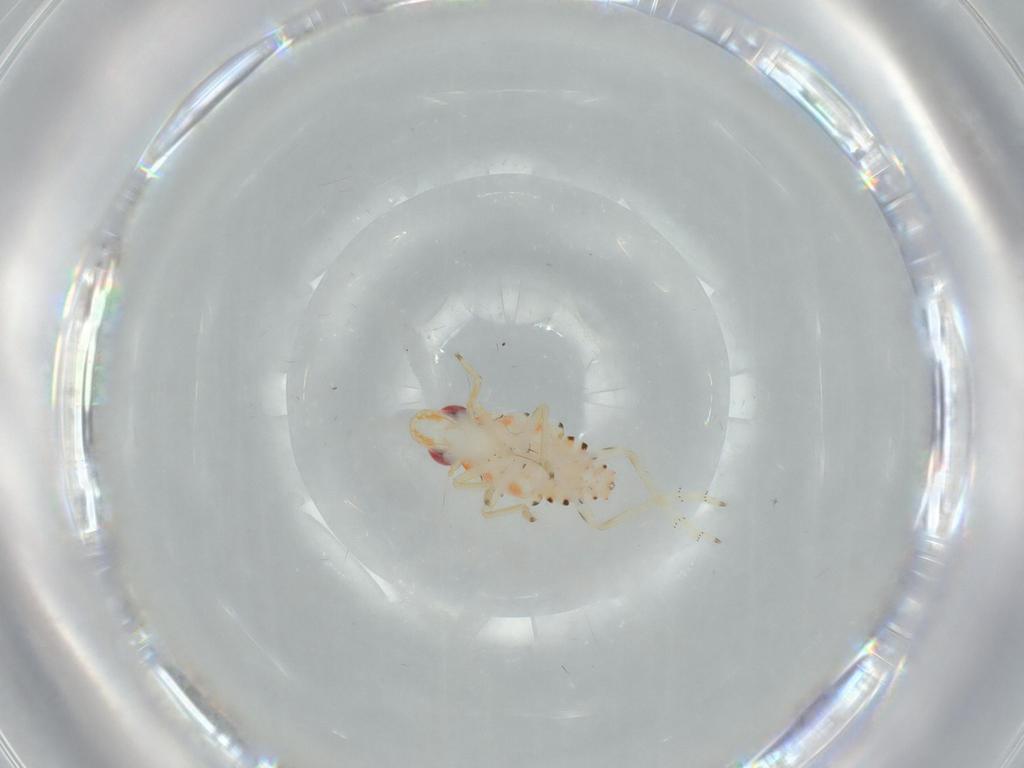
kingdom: Animalia
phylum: Arthropoda
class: Insecta
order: Hemiptera
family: Tropiduchidae
